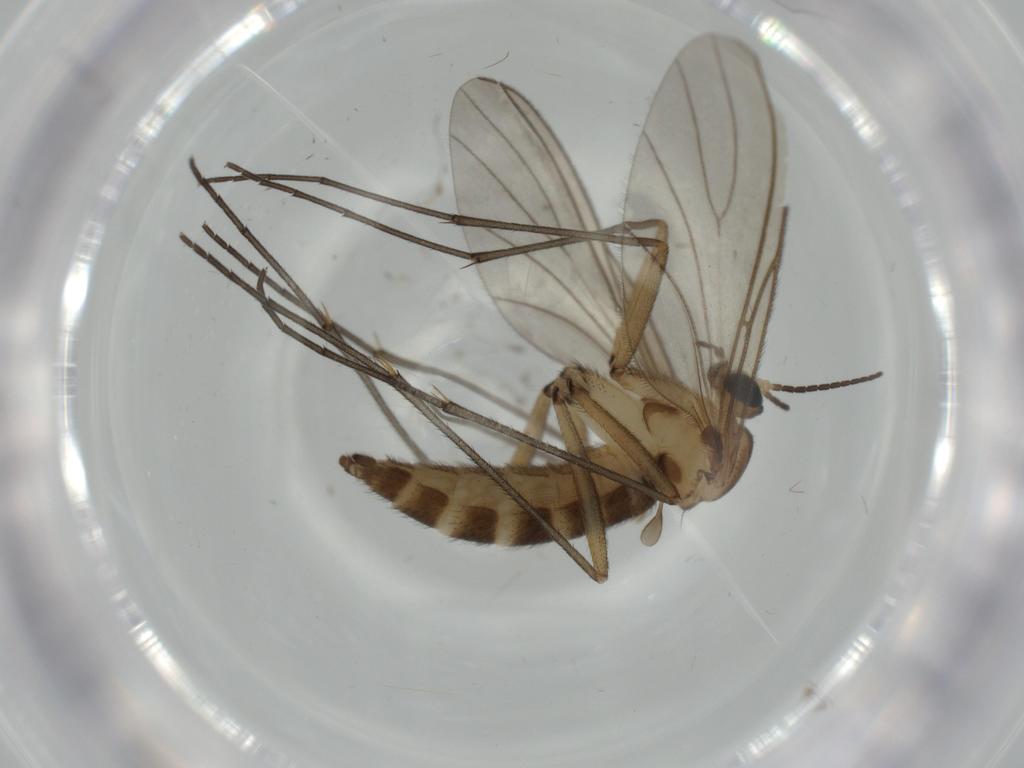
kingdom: Animalia
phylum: Arthropoda
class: Insecta
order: Diptera
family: Sciaridae
